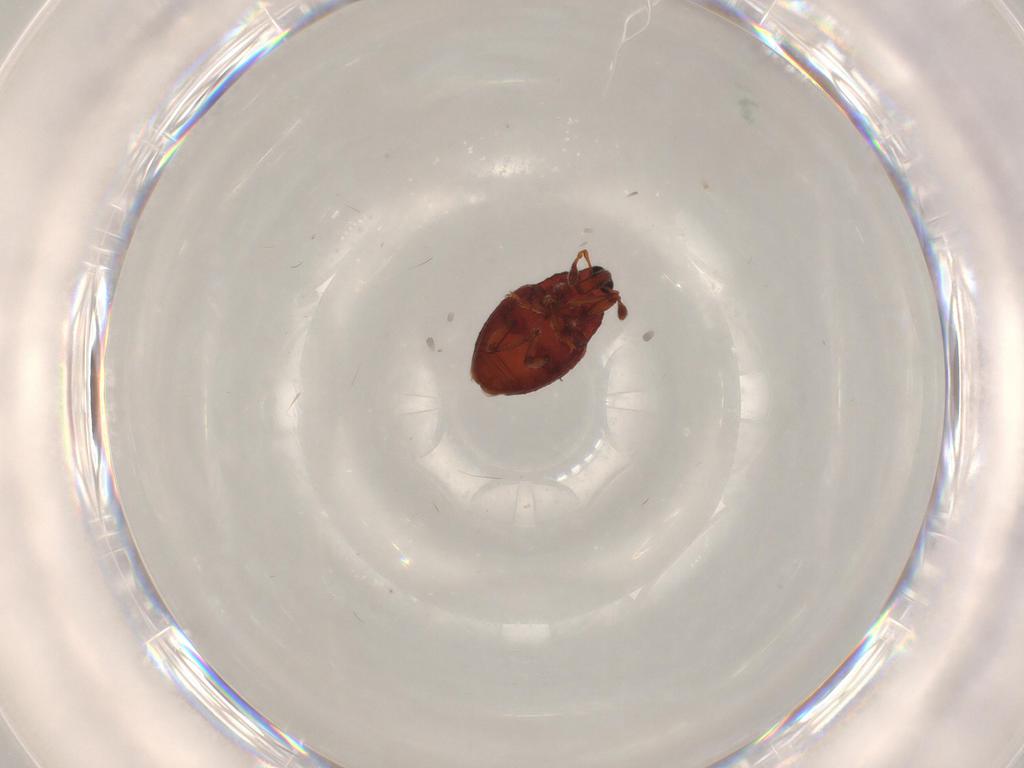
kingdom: Animalia
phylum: Arthropoda
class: Insecta
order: Coleoptera
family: Curculionidae
